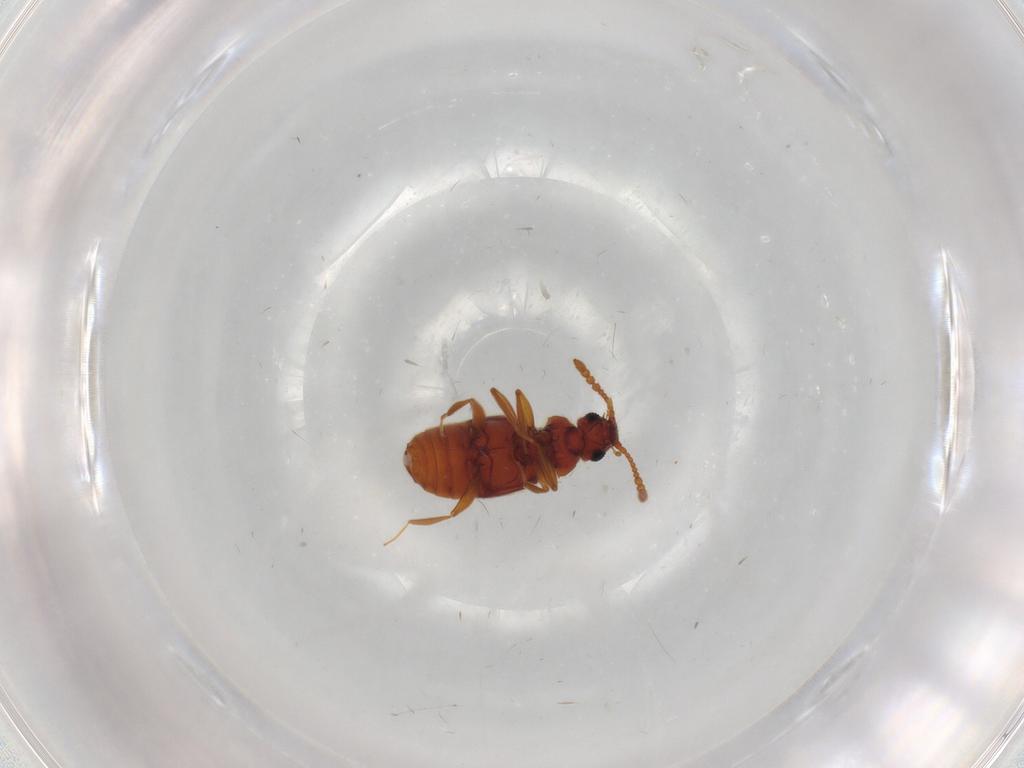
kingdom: Animalia
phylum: Arthropoda
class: Insecta
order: Coleoptera
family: Staphylinidae
